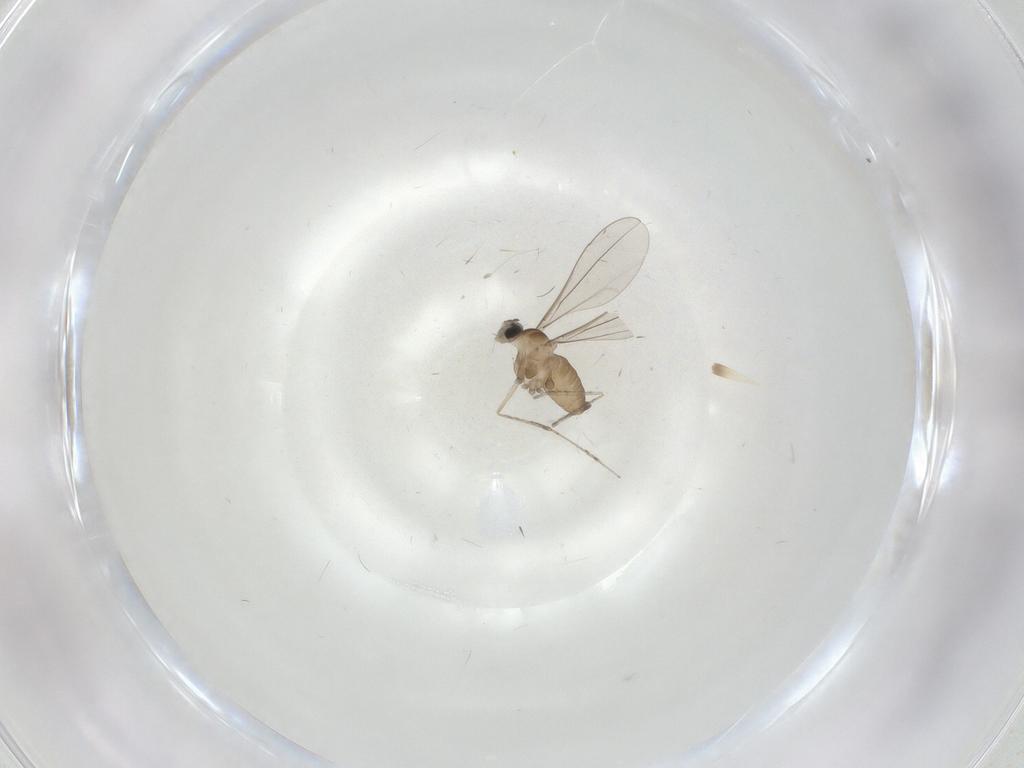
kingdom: Animalia
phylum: Arthropoda
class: Insecta
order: Diptera
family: Cecidomyiidae
